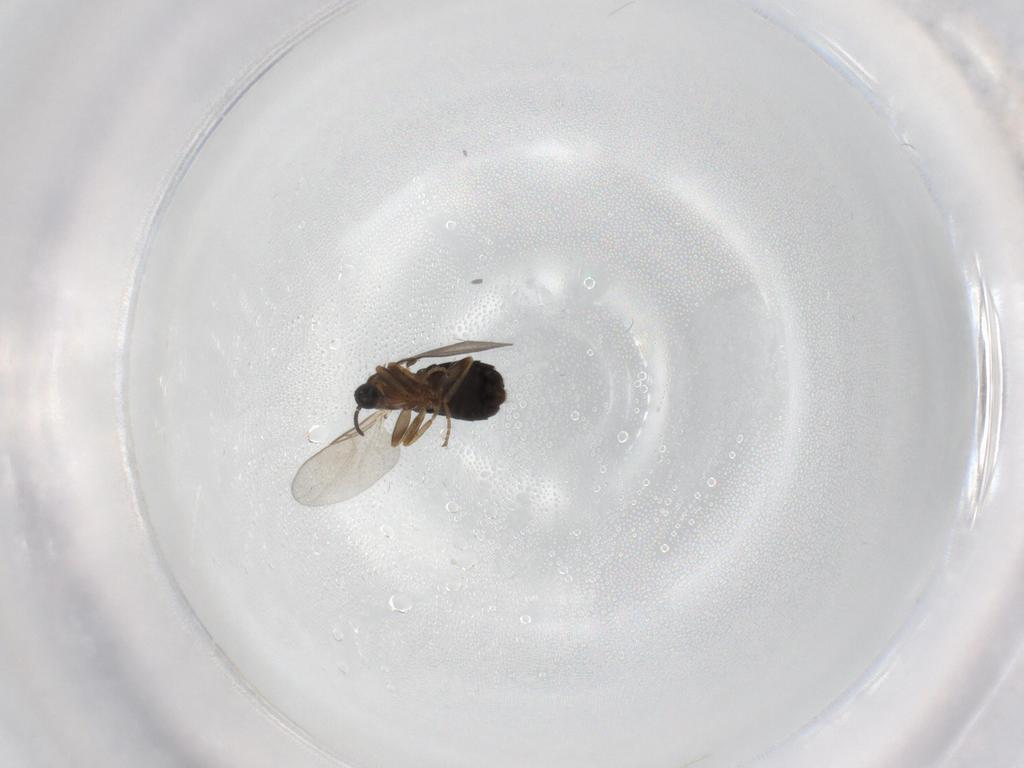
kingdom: Animalia
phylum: Arthropoda
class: Insecta
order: Diptera
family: Scatopsidae
